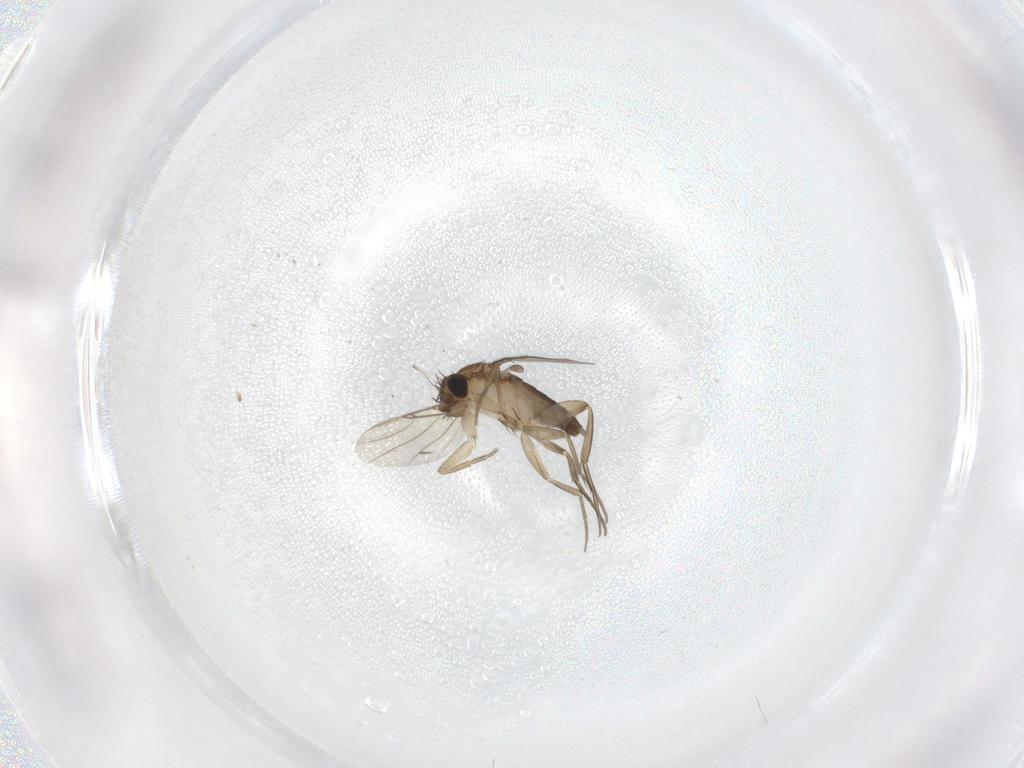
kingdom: Animalia
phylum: Arthropoda
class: Insecta
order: Diptera
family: Phoridae
